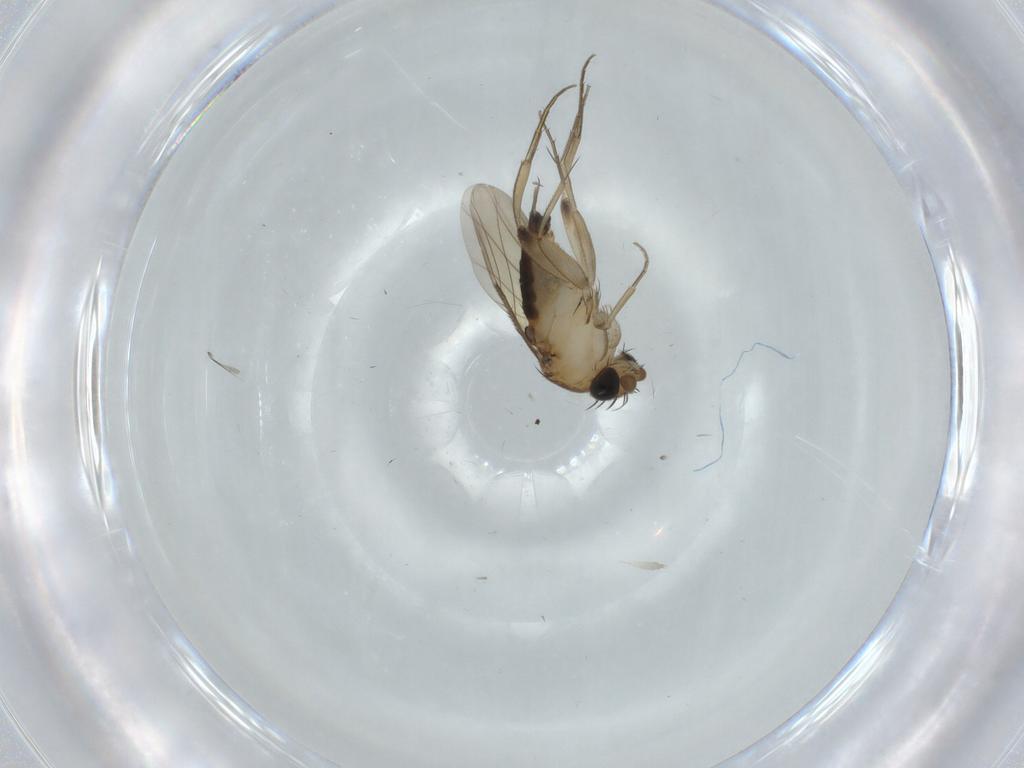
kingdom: Animalia
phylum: Arthropoda
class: Insecta
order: Diptera
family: Phoridae
